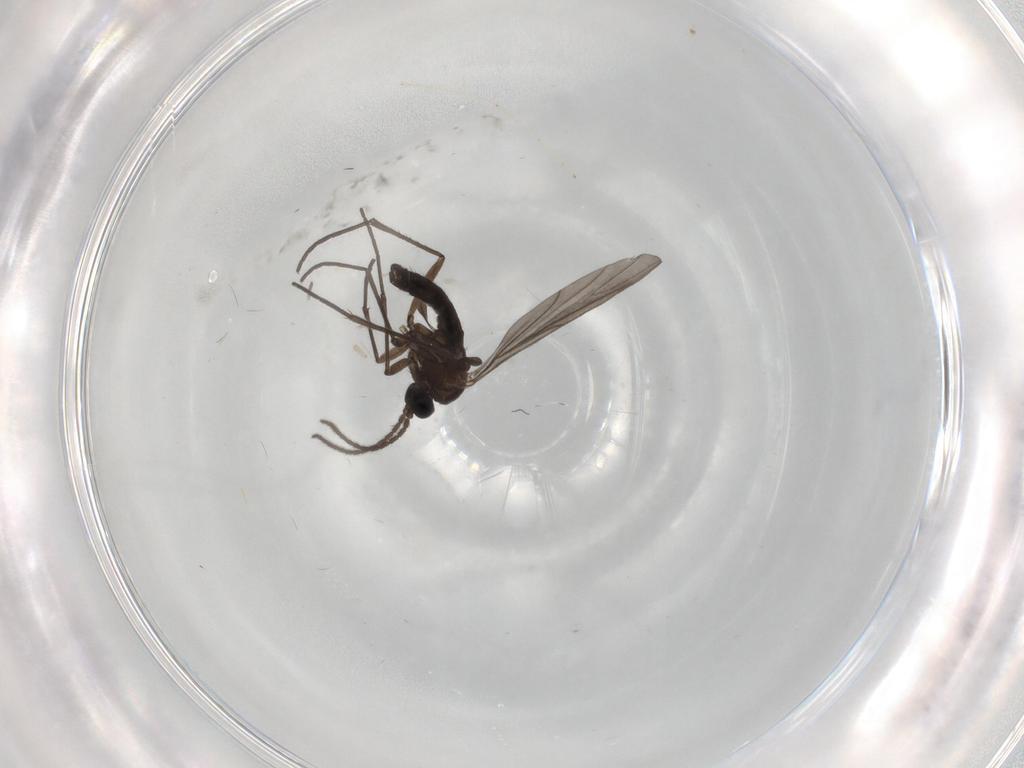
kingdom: Animalia
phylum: Arthropoda
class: Insecta
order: Diptera
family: Sciaridae
